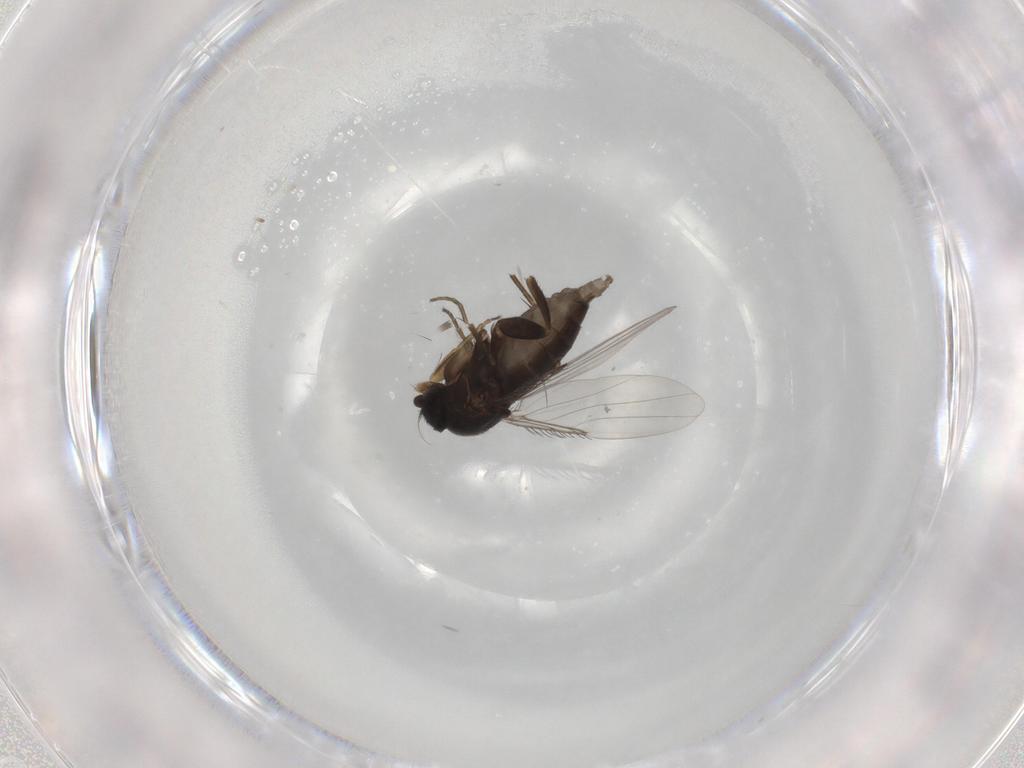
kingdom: Animalia
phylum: Arthropoda
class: Insecta
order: Diptera
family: Phoridae
